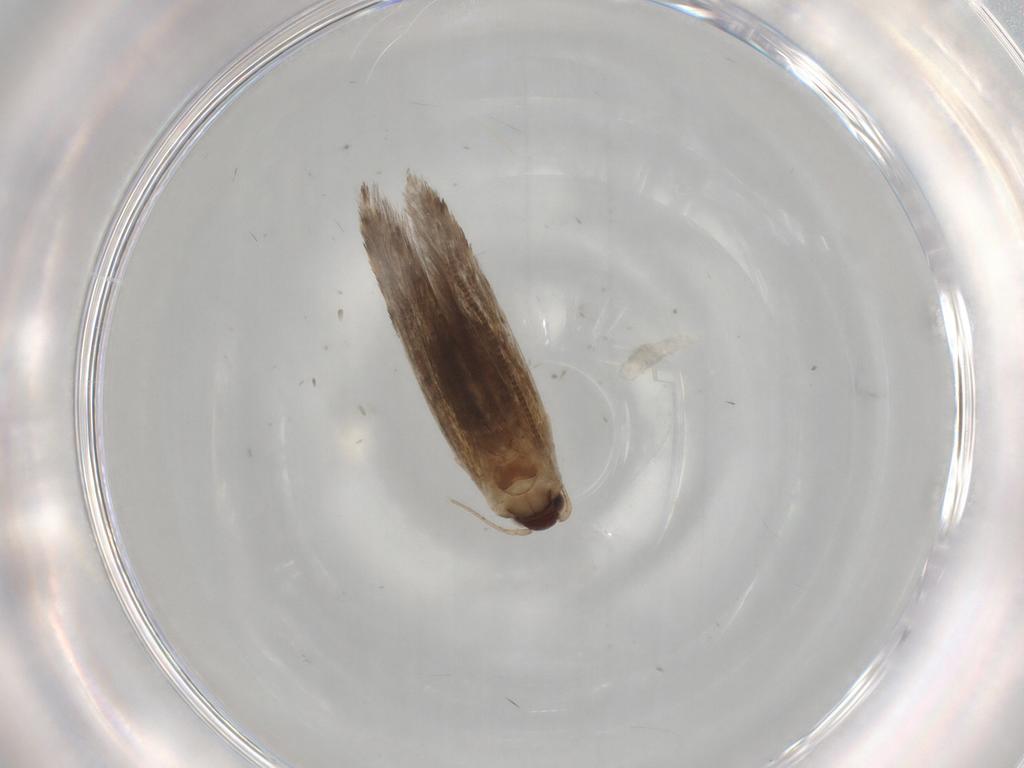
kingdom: Animalia
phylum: Arthropoda
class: Insecta
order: Lepidoptera
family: Tineidae
